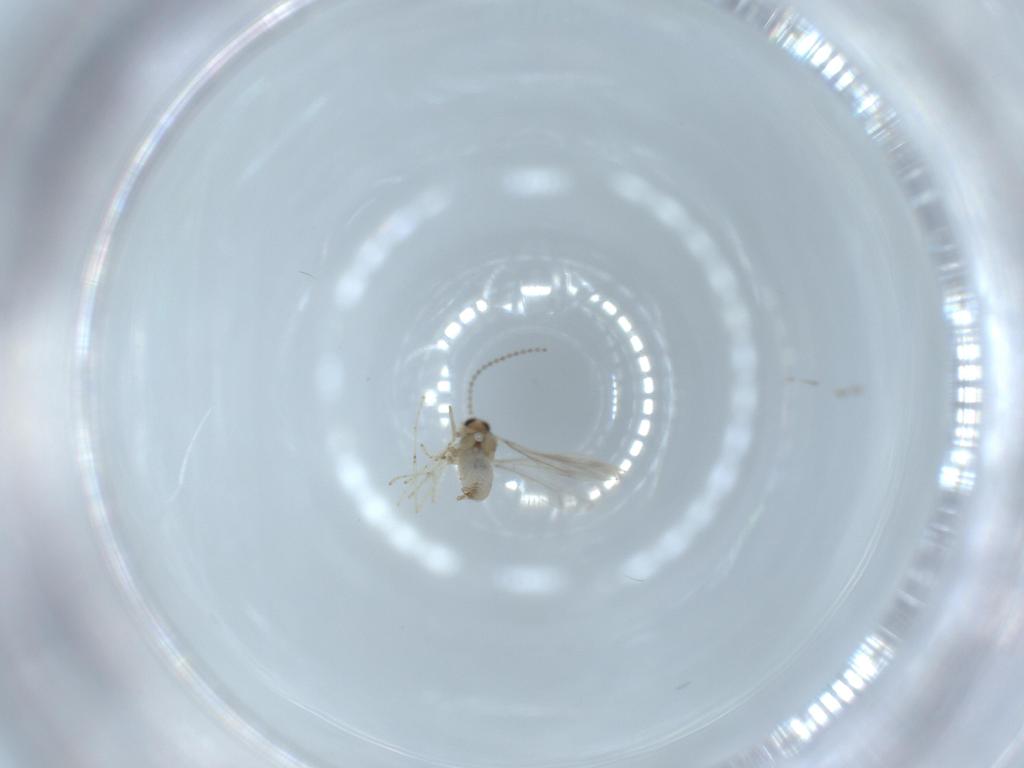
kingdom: Animalia
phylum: Arthropoda
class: Insecta
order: Diptera
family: Cecidomyiidae
